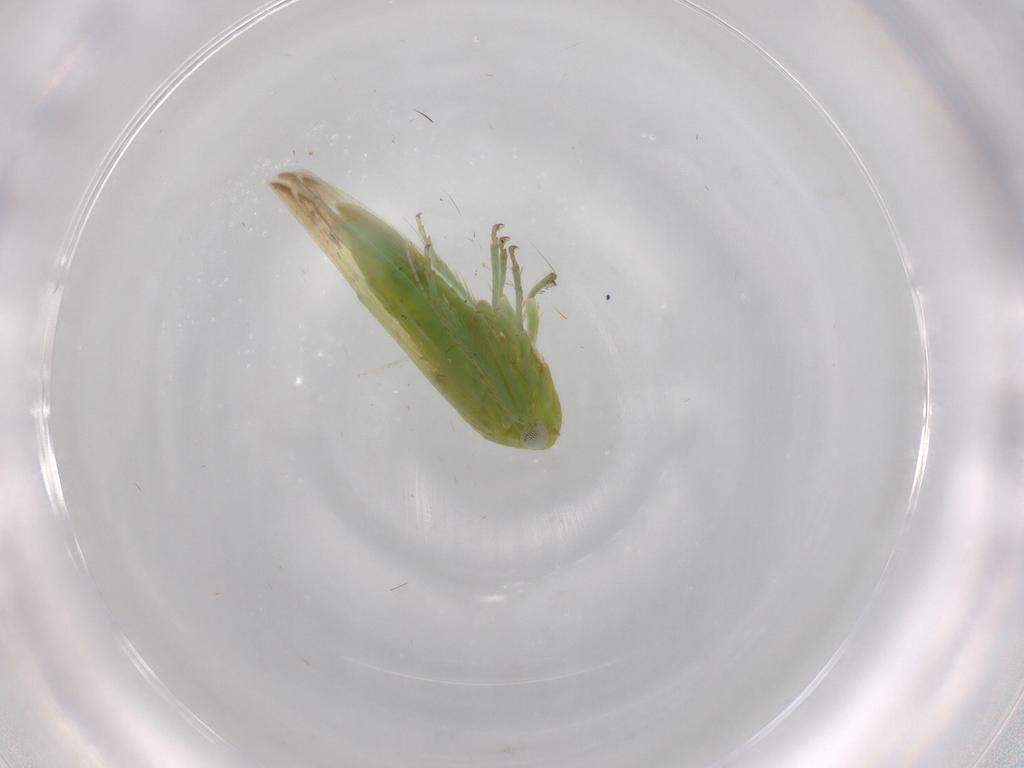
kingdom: Animalia
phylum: Arthropoda
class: Insecta
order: Hemiptera
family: Cicadellidae
